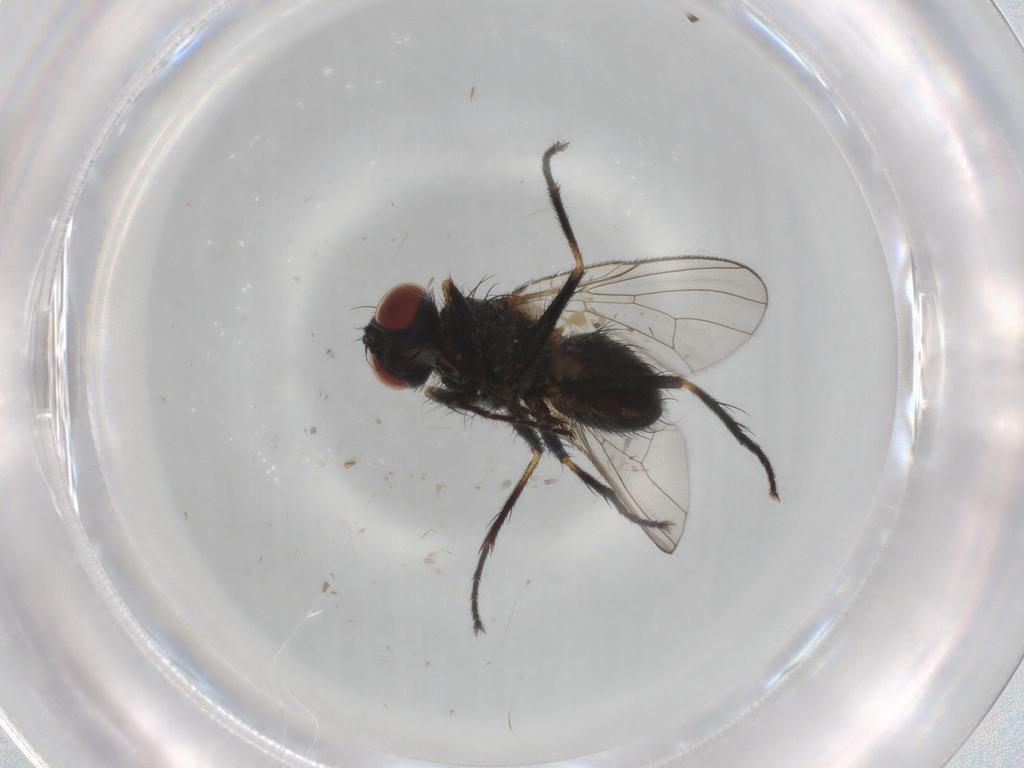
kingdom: Animalia
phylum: Arthropoda
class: Insecta
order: Diptera
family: Muscidae
